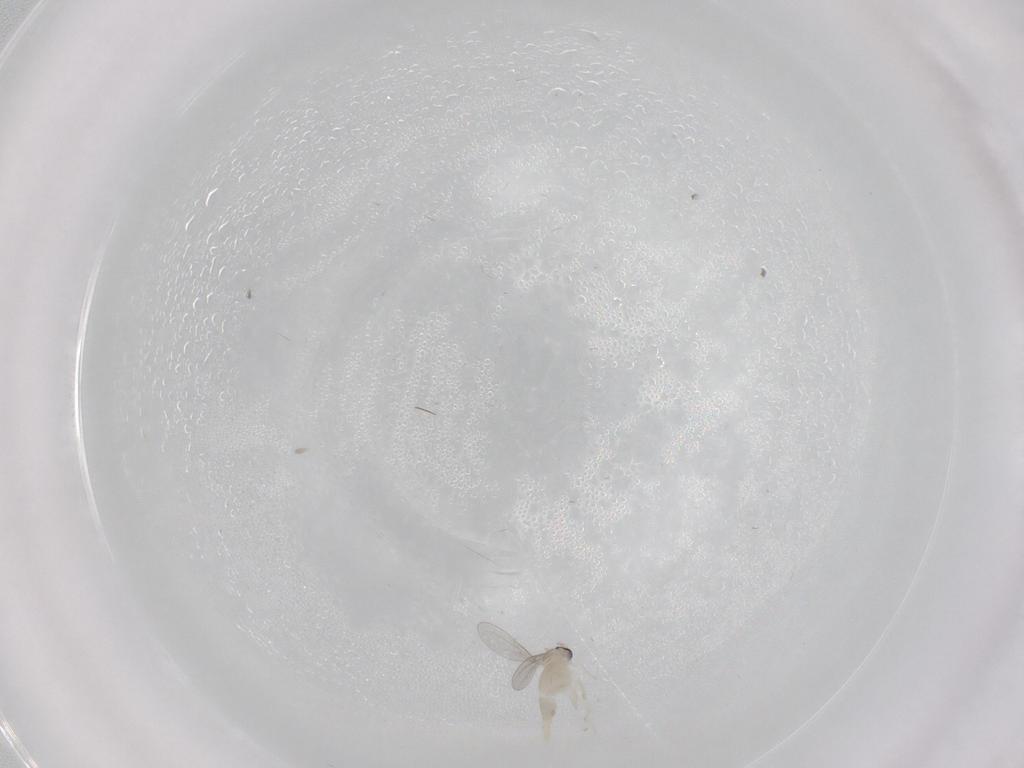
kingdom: Animalia
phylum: Arthropoda
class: Insecta
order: Diptera
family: Cecidomyiidae
